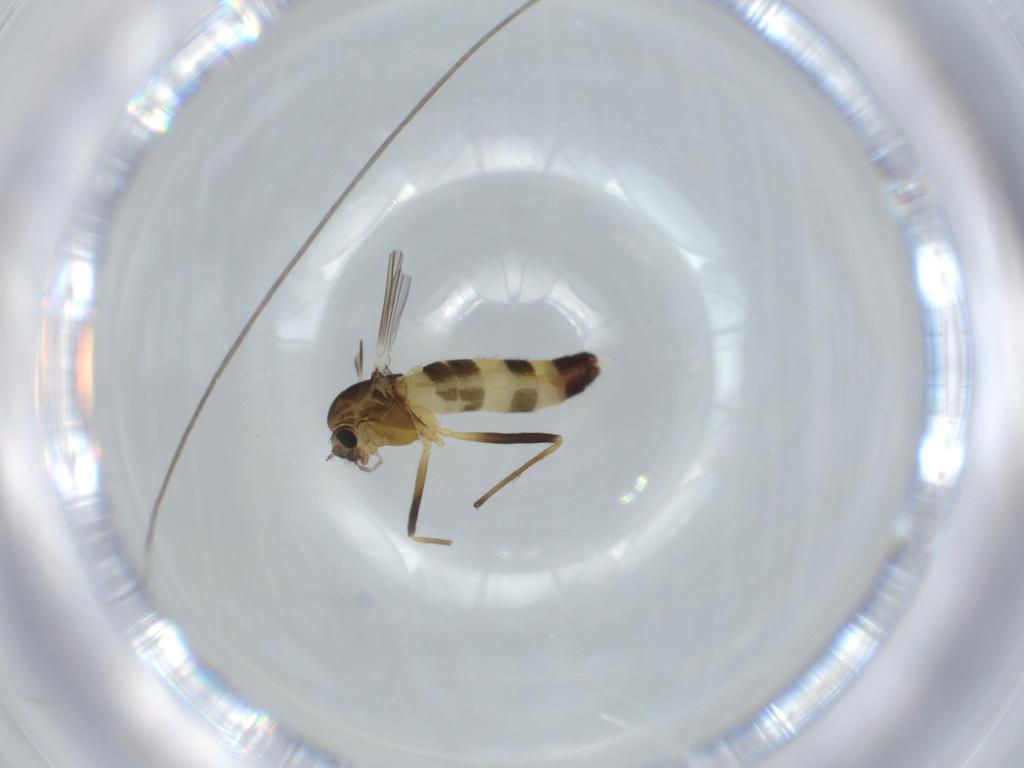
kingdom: Animalia
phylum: Arthropoda
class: Insecta
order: Diptera
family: Chironomidae
